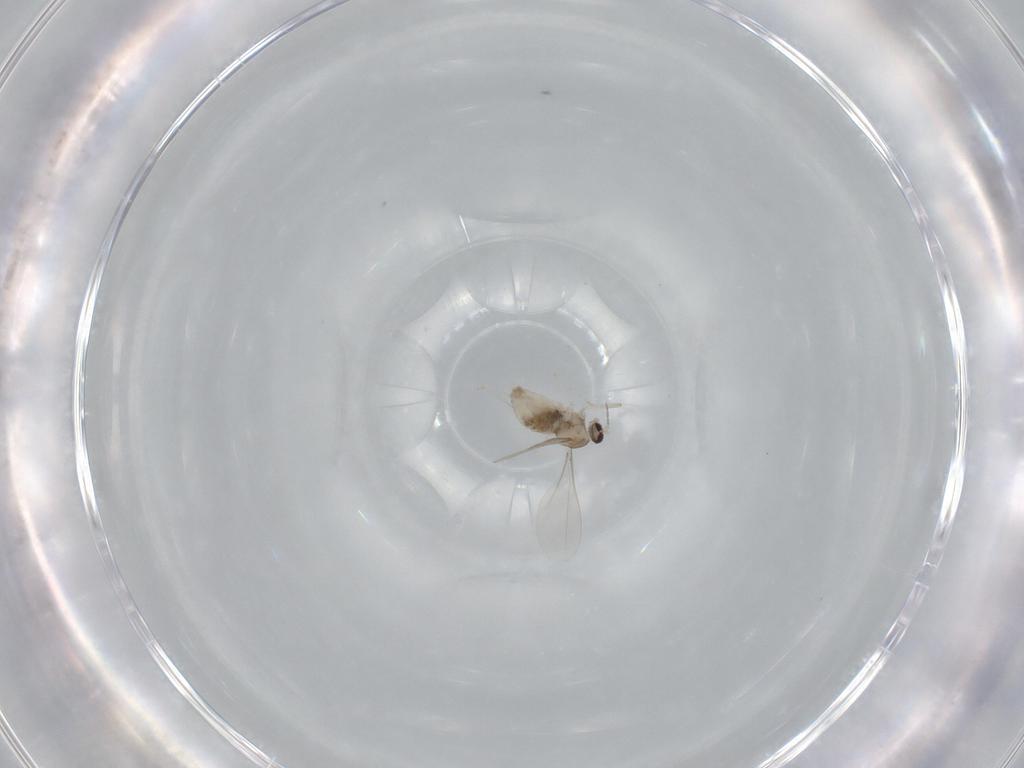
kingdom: Animalia
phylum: Arthropoda
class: Insecta
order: Diptera
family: Cecidomyiidae
